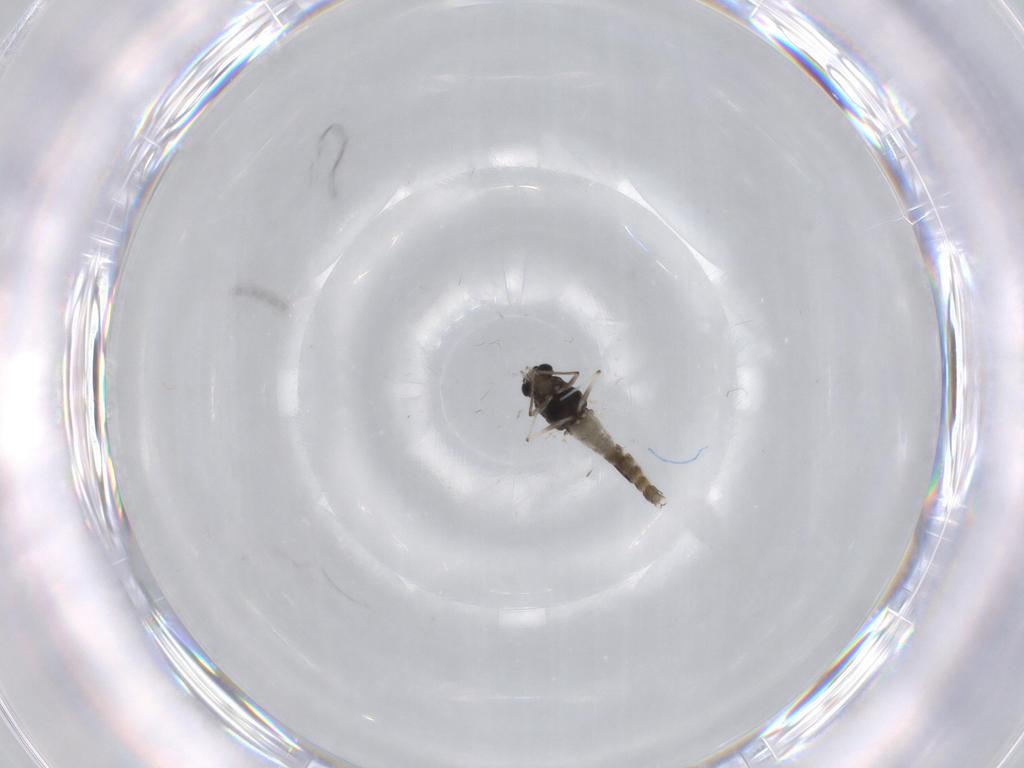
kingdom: Animalia
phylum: Arthropoda
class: Insecta
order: Diptera
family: Chironomidae
